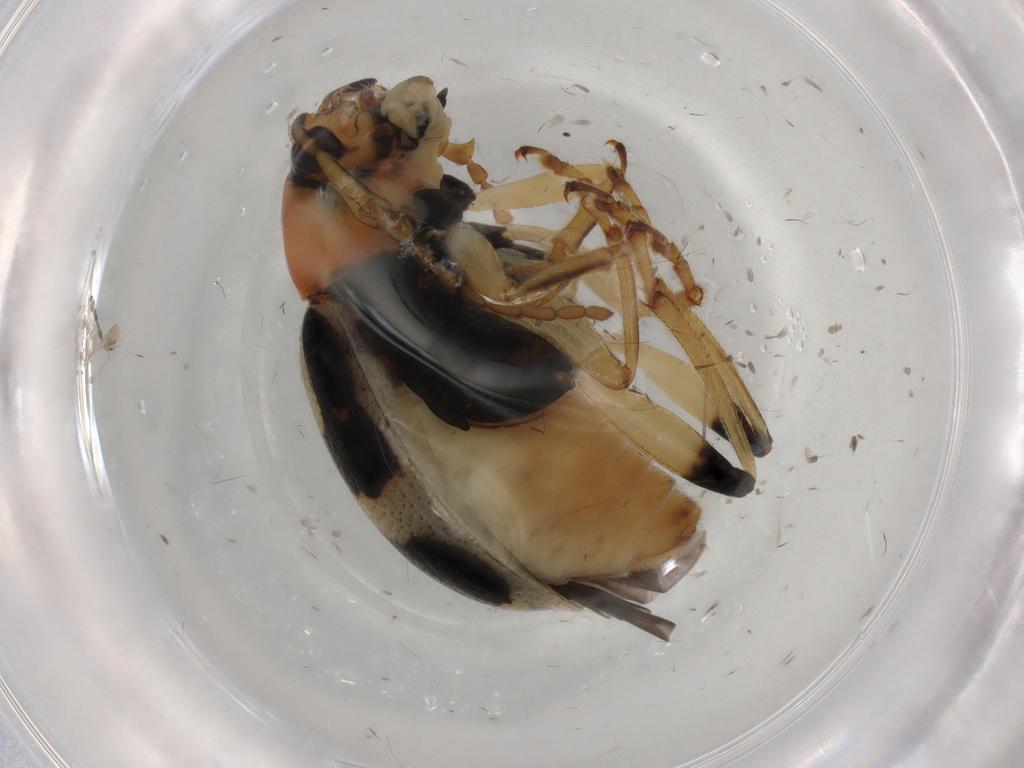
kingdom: Animalia
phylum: Arthropoda
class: Insecta
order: Coleoptera
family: Chrysomelidae
